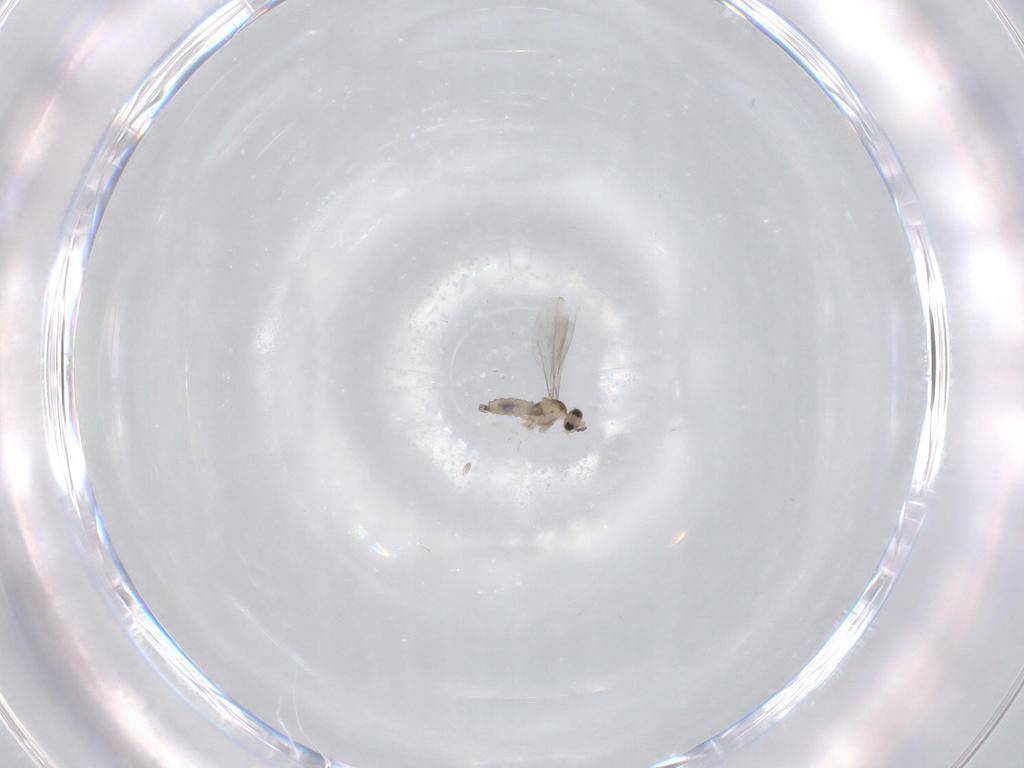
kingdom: Animalia
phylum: Arthropoda
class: Insecta
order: Diptera
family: Cecidomyiidae
